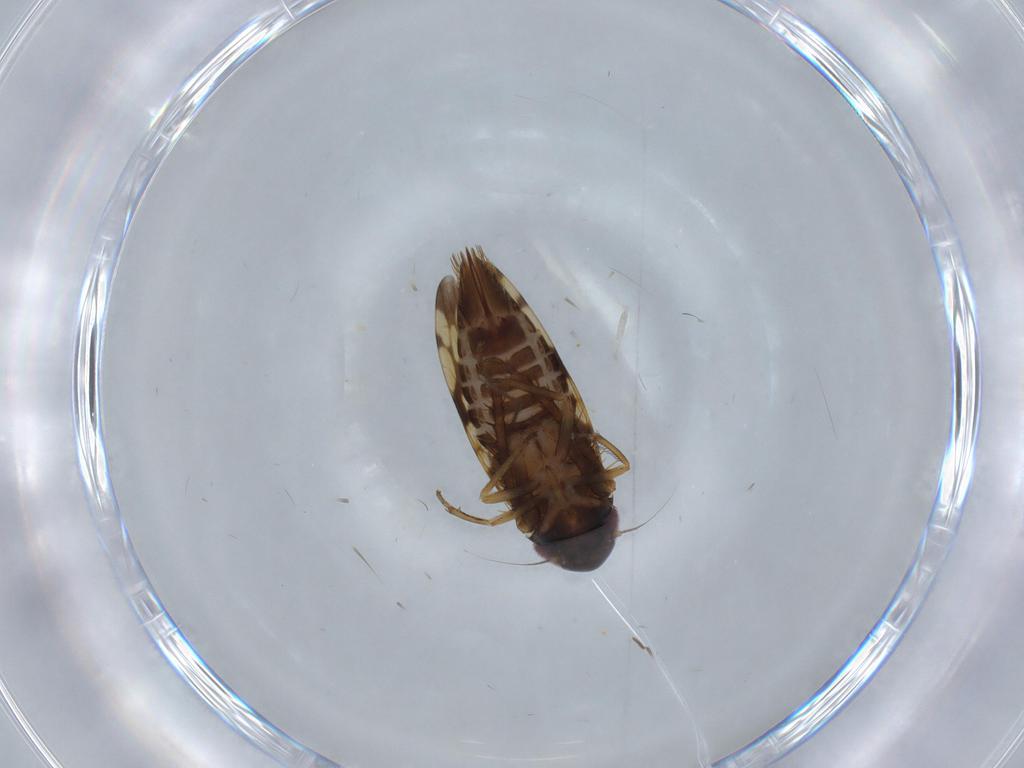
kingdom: Animalia
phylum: Arthropoda
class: Insecta
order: Hemiptera
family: Cicadellidae
